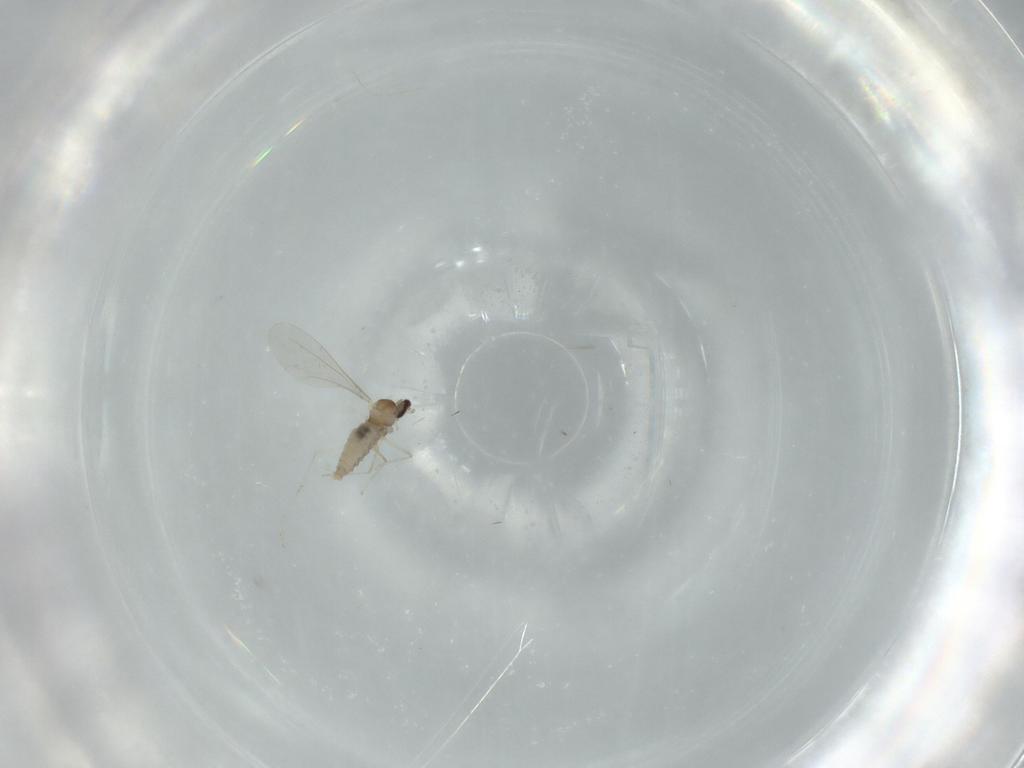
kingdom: Animalia
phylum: Arthropoda
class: Insecta
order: Diptera
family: Cecidomyiidae
